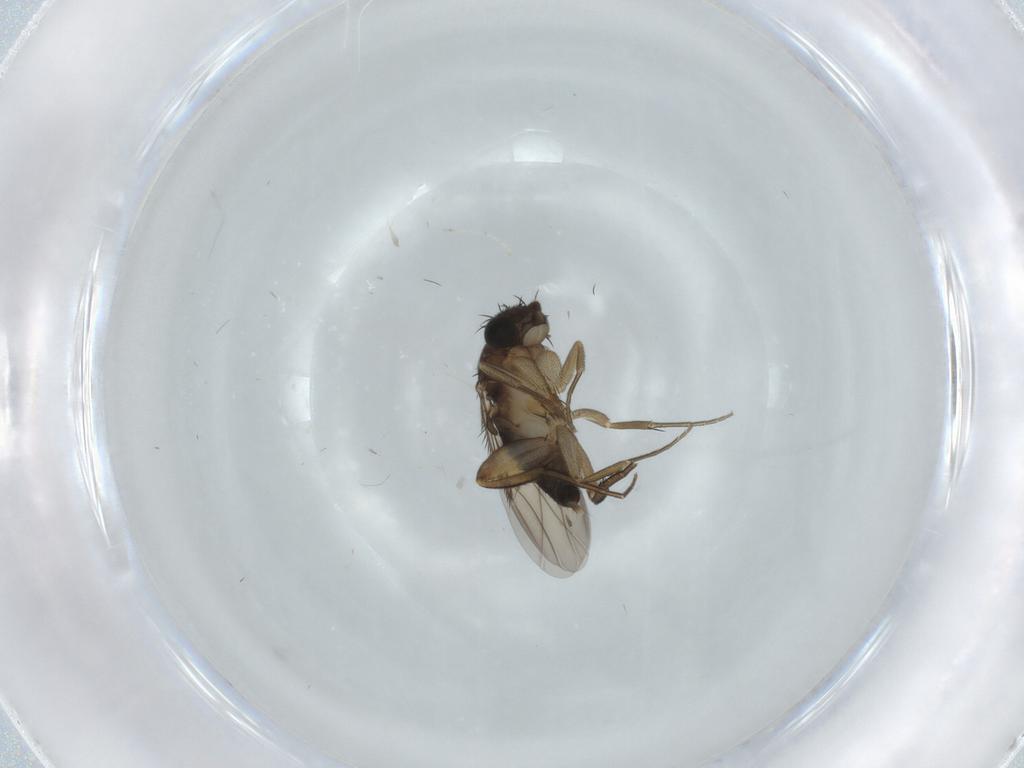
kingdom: Animalia
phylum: Arthropoda
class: Insecta
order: Diptera
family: Phoridae
